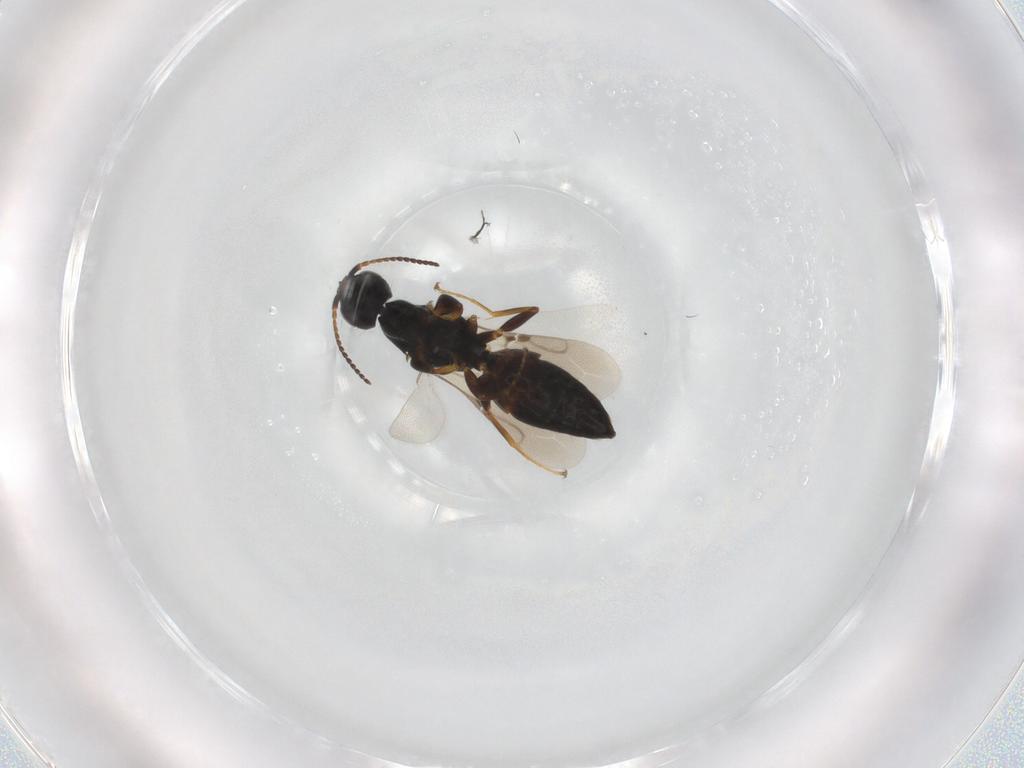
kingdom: Animalia
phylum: Arthropoda
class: Insecta
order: Hymenoptera
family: Bethylidae
